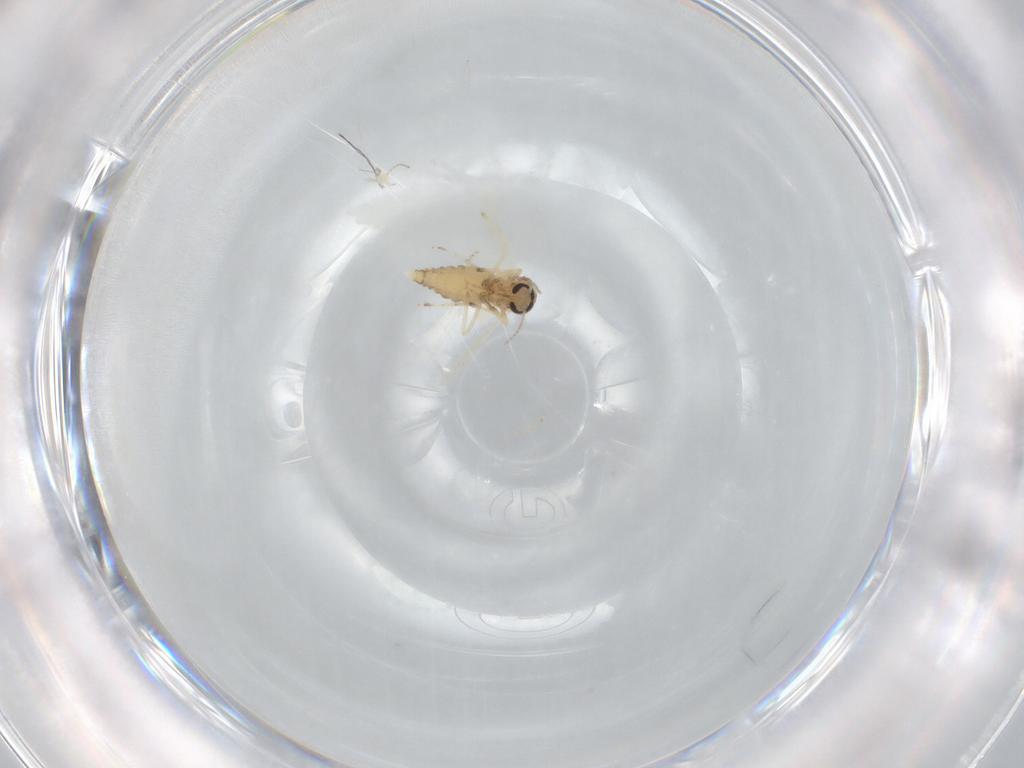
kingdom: Animalia
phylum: Arthropoda
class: Insecta
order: Diptera
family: Ceratopogonidae
